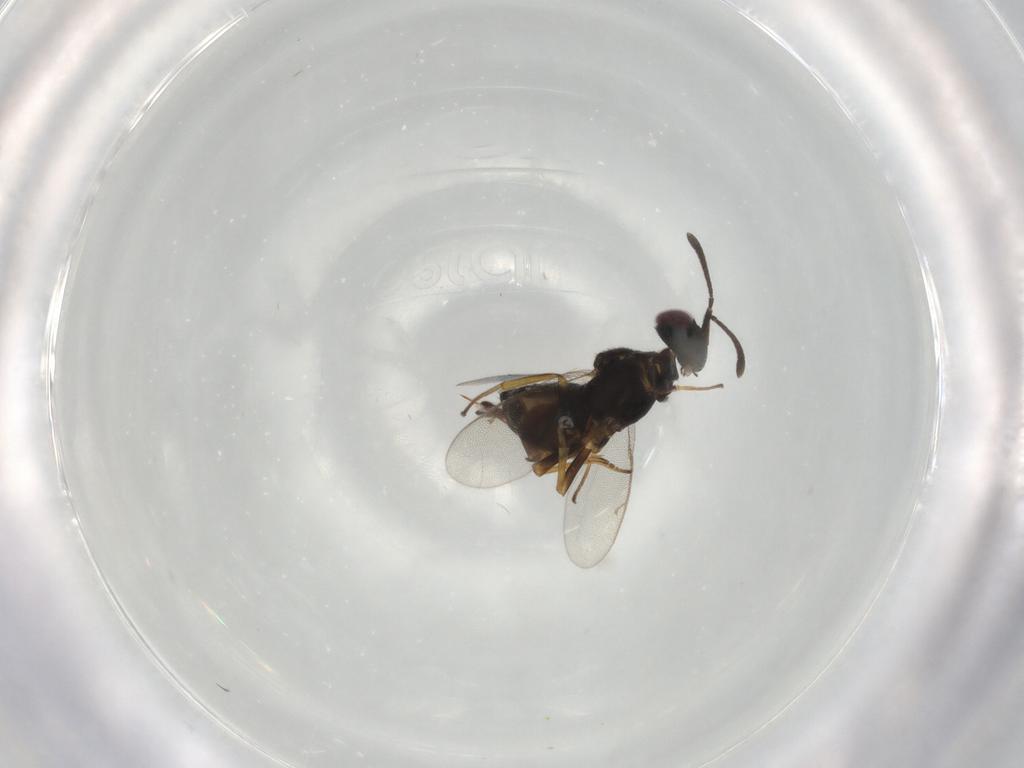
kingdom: Animalia
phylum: Arthropoda
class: Insecta
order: Hymenoptera
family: Eupelmidae
